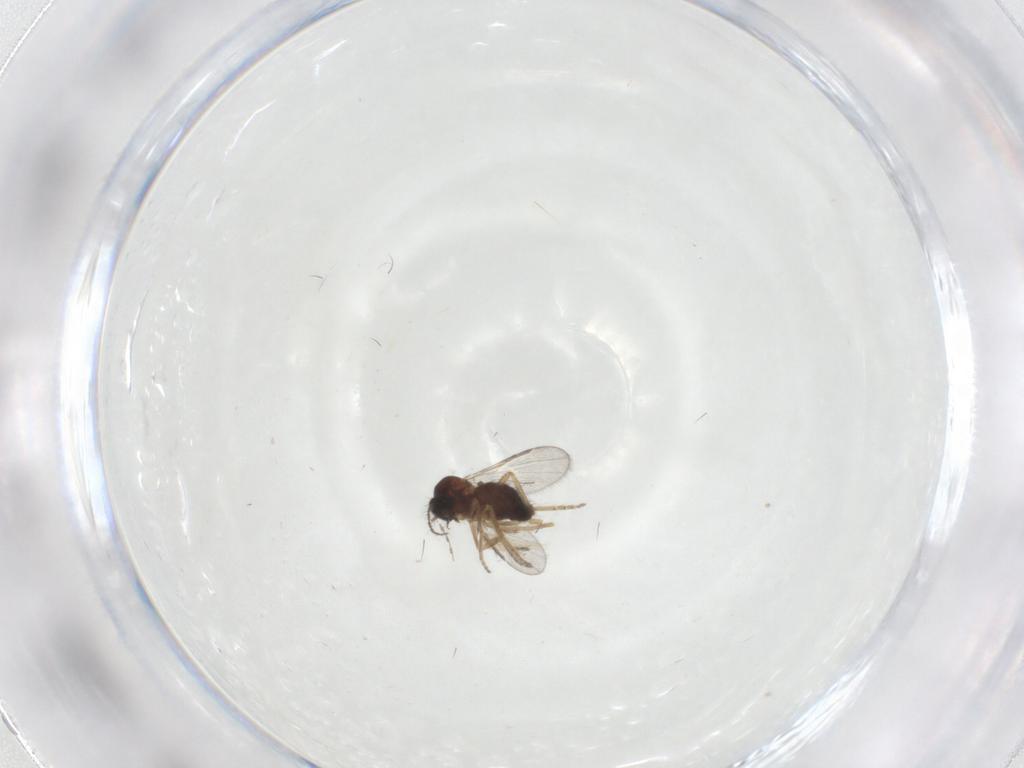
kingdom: Animalia
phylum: Arthropoda
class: Insecta
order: Diptera
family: Ceratopogonidae
